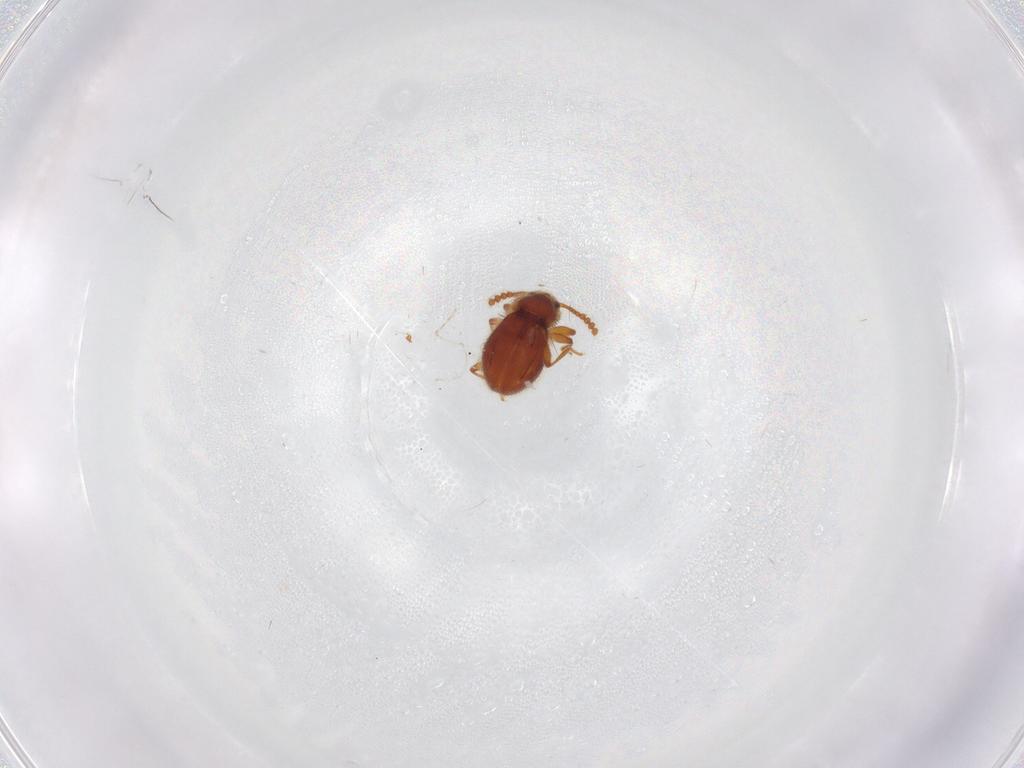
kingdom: Animalia
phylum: Arthropoda
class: Insecta
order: Coleoptera
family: Staphylinidae
